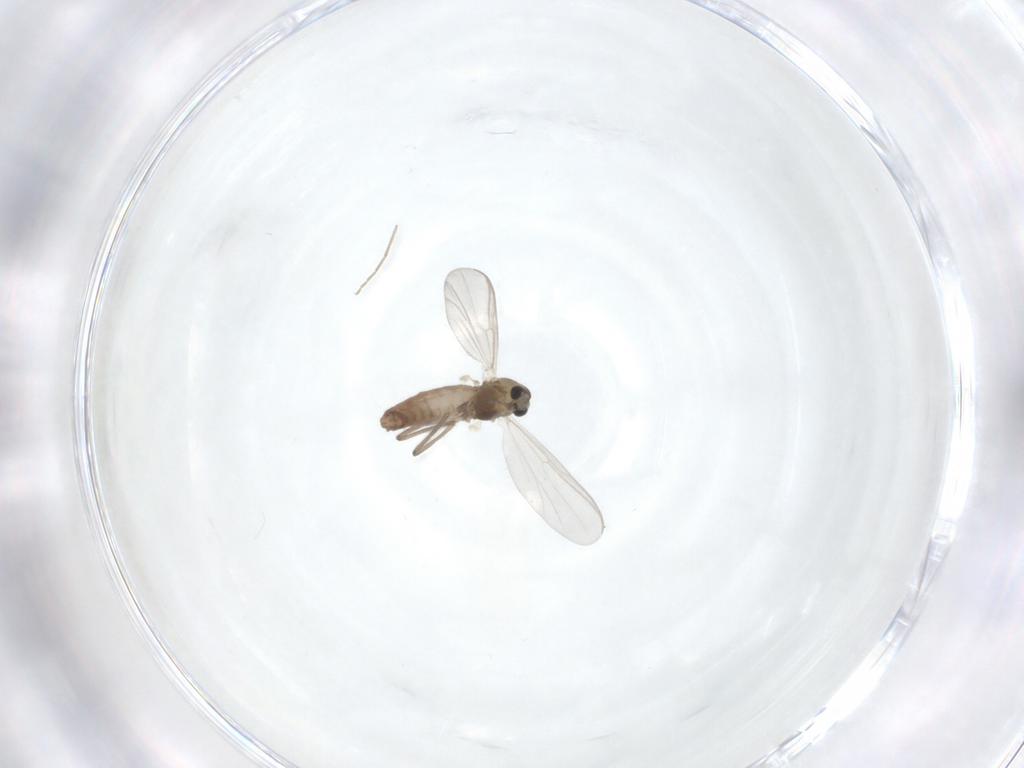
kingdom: Animalia
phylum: Arthropoda
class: Insecta
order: Diptera
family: Chironomidae
